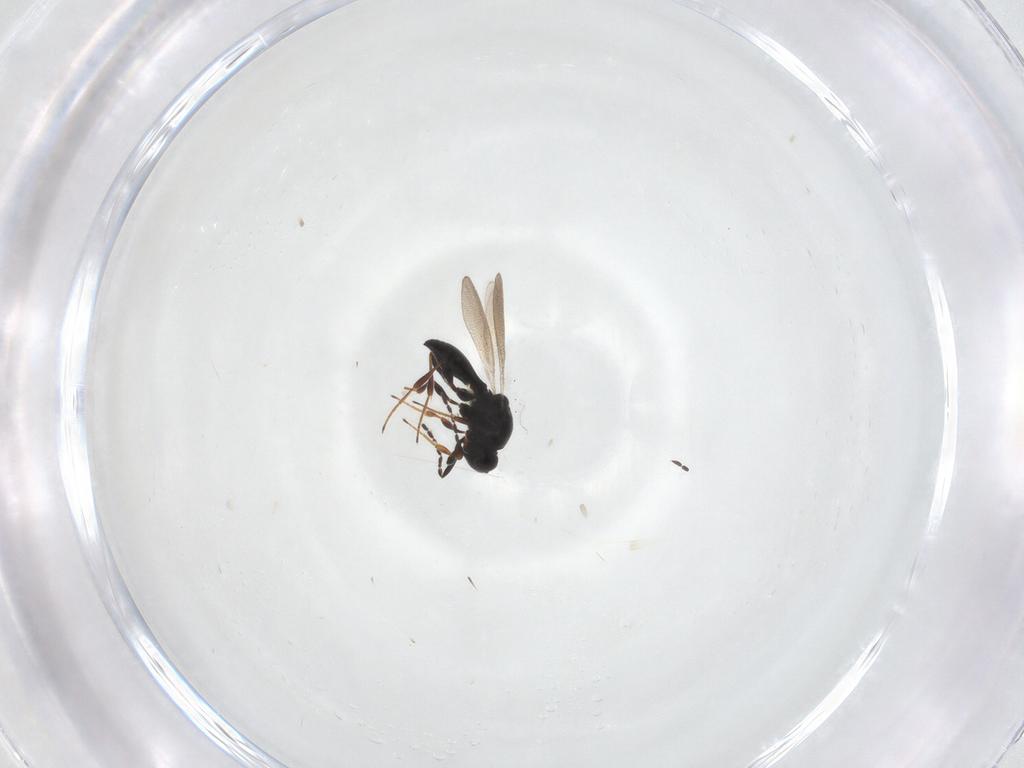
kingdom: Animalia
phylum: Arthropoda
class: Insecta
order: Hymenoptera
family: Platygastridae
